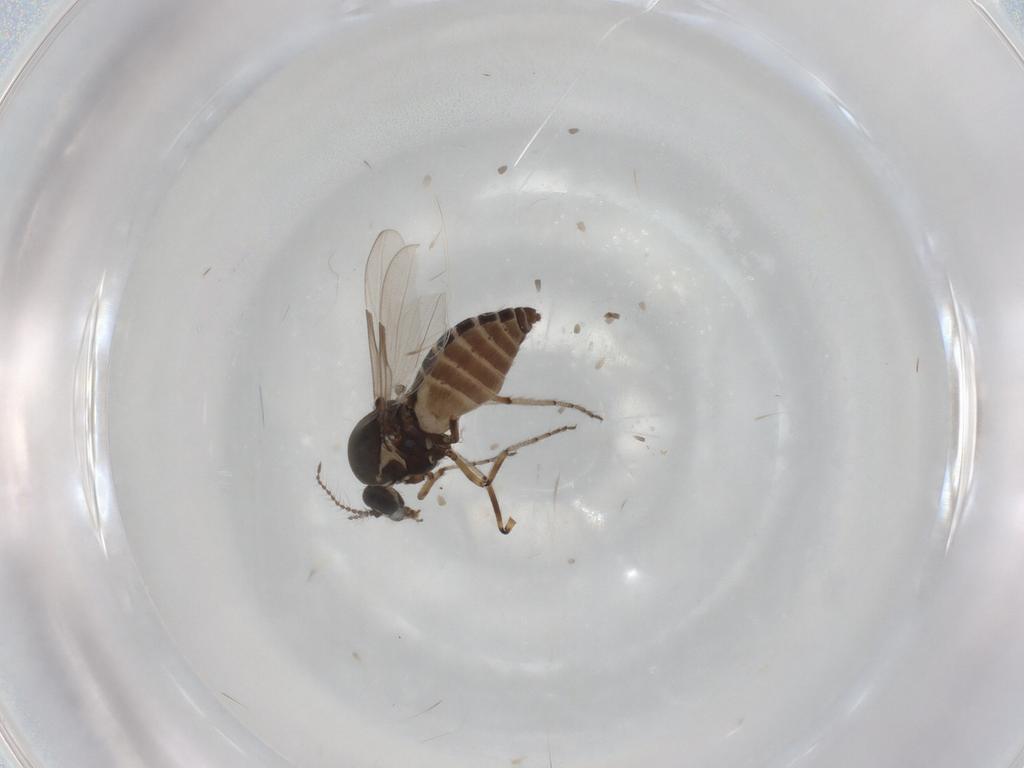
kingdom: Animalia
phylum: Arthropoda
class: Insecta
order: Diptera
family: Ceratopogonidae
